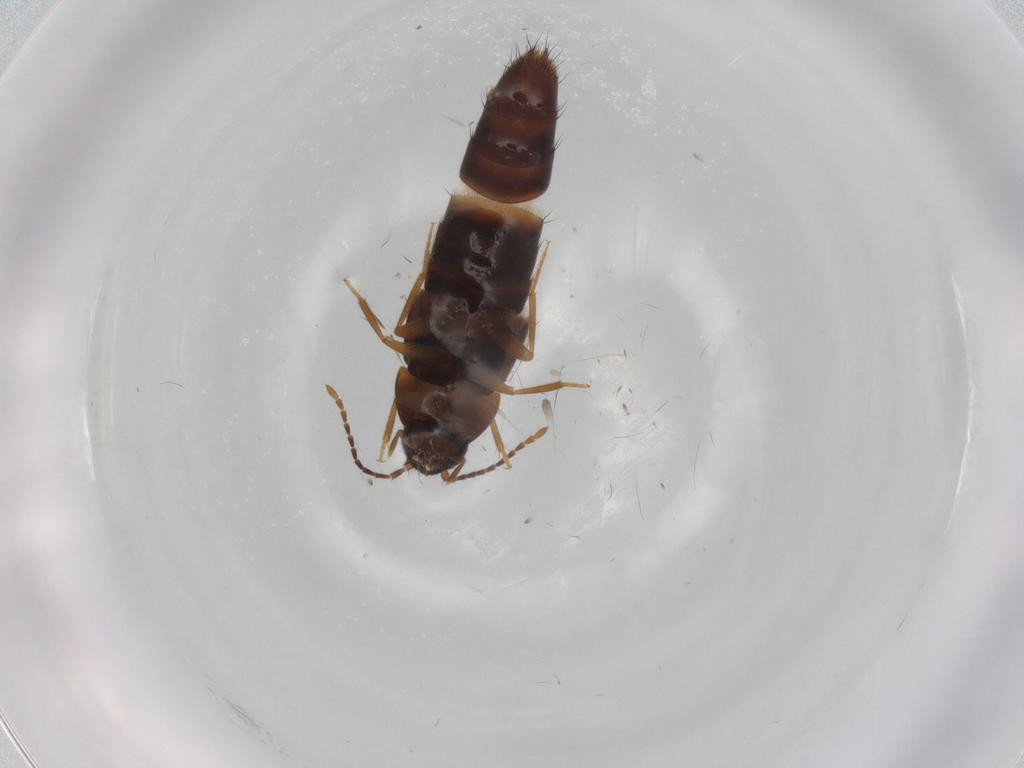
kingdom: Animalia
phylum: Arthropoda
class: Insecta
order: Coleoptera
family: Staphylinidae
